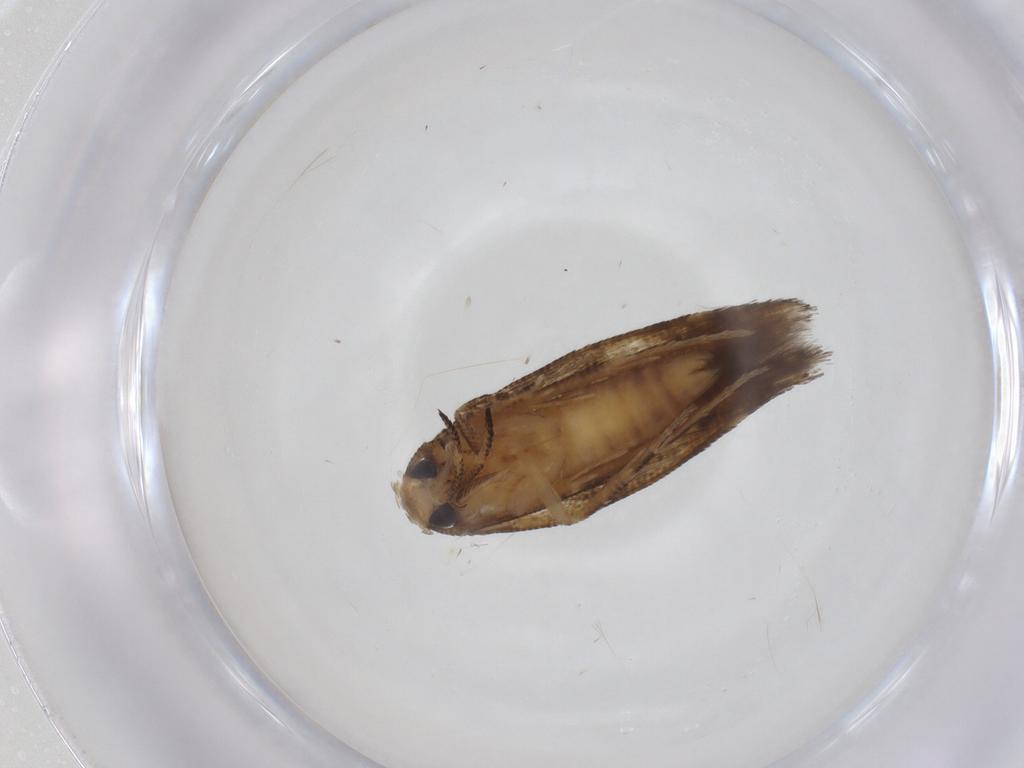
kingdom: Animalia
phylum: Arthropoda
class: Insecta
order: Lepidoptera
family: Gelechiidae
